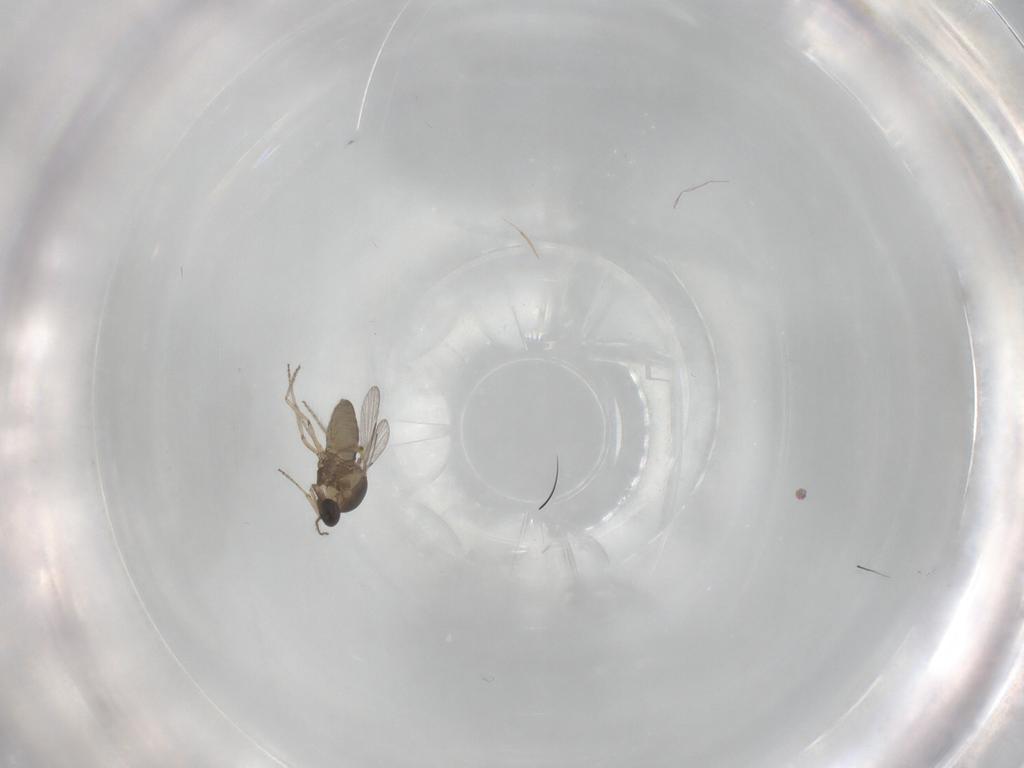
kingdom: Animalia
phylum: Arthropoda
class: Insecta
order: Diptera
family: Ceratopogonidae
